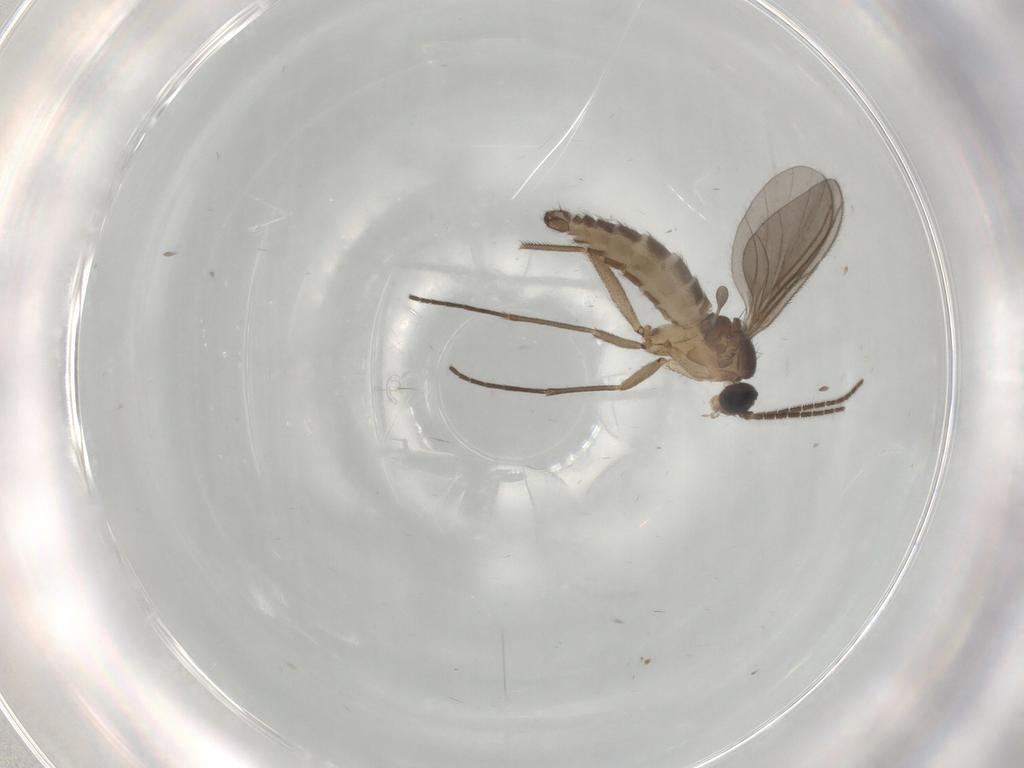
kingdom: Animalia
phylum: Arthropoda
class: Insecta
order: Diptera
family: Sciaridae
